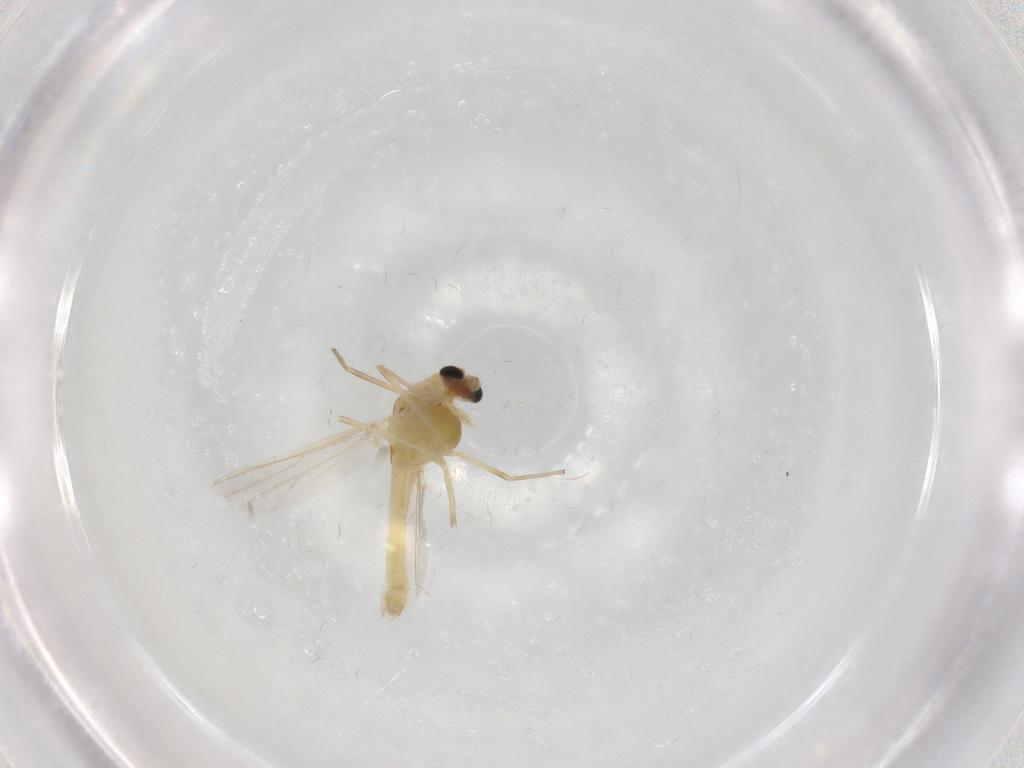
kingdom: Animalia
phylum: Arthropoda
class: Insecta
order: Diptera
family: Chironomidae
